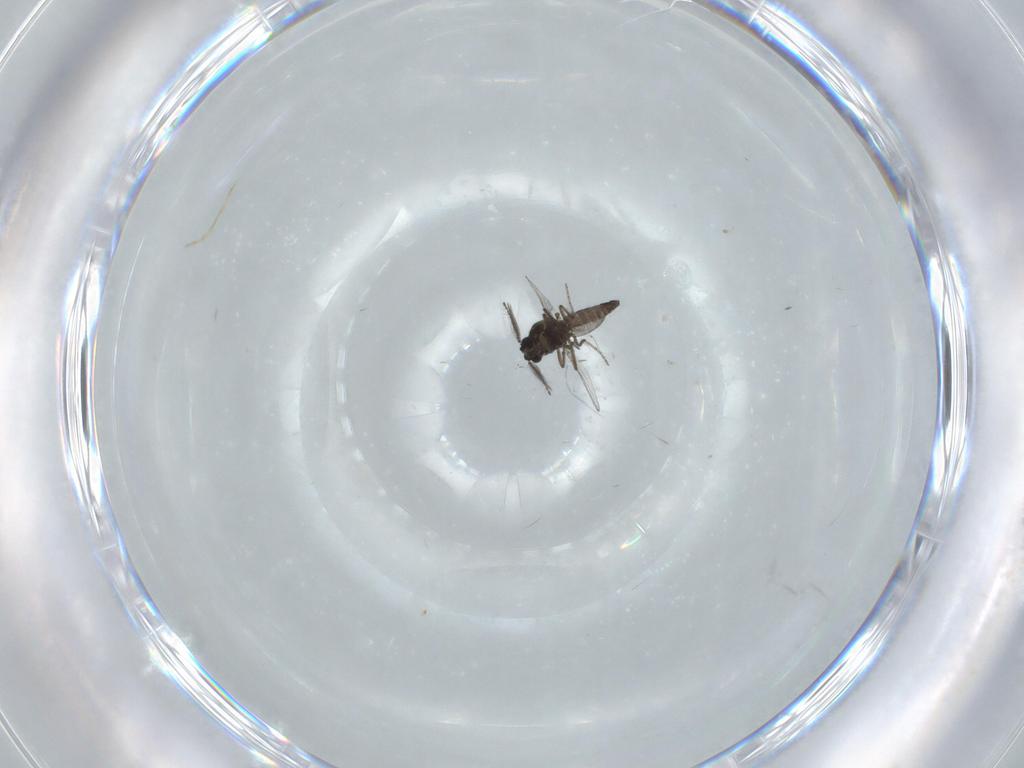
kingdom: Animalia
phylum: Arthropoda
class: Insecta
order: Diptera
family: Ceratopogonidae
